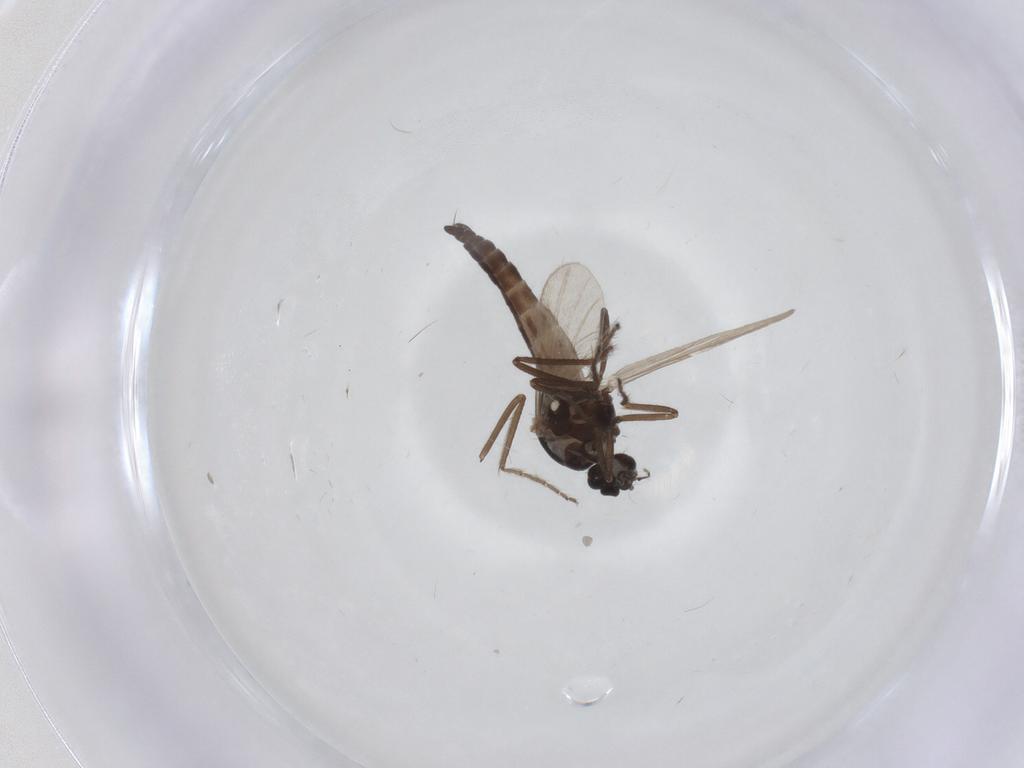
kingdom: Animalia
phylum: Arthropoda
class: Insecta
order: Diptera
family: Ceratopogonidae
